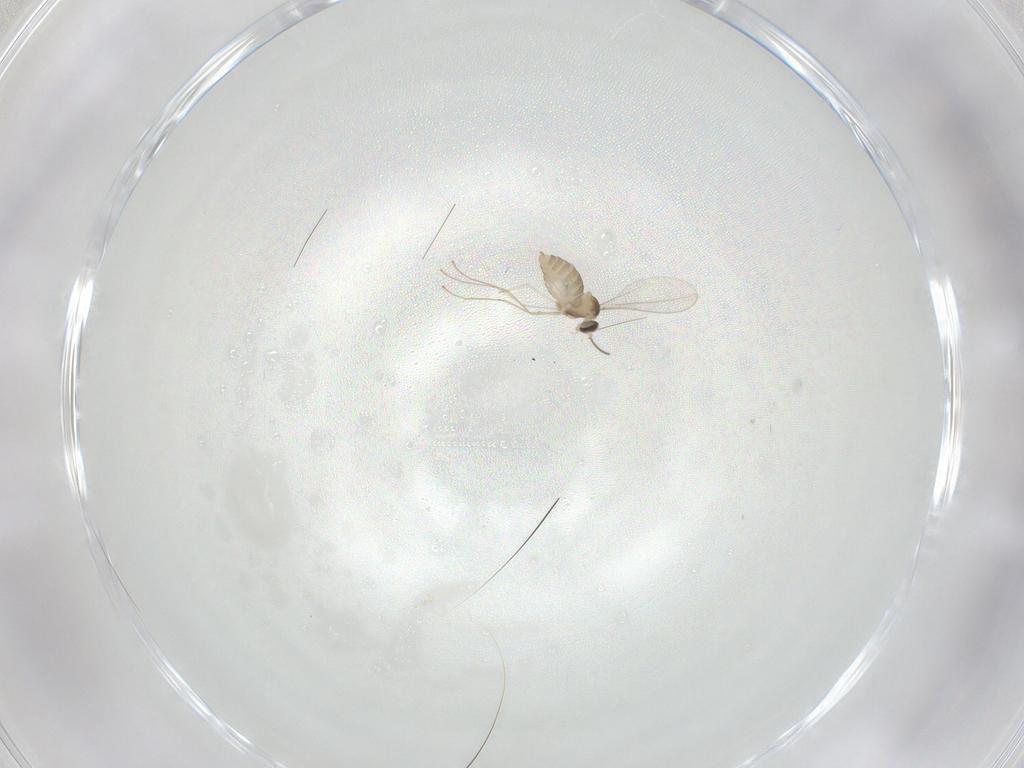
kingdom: Animalia
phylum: Arthropoda
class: Insecta
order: Diptera
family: Cecidomyiidae
